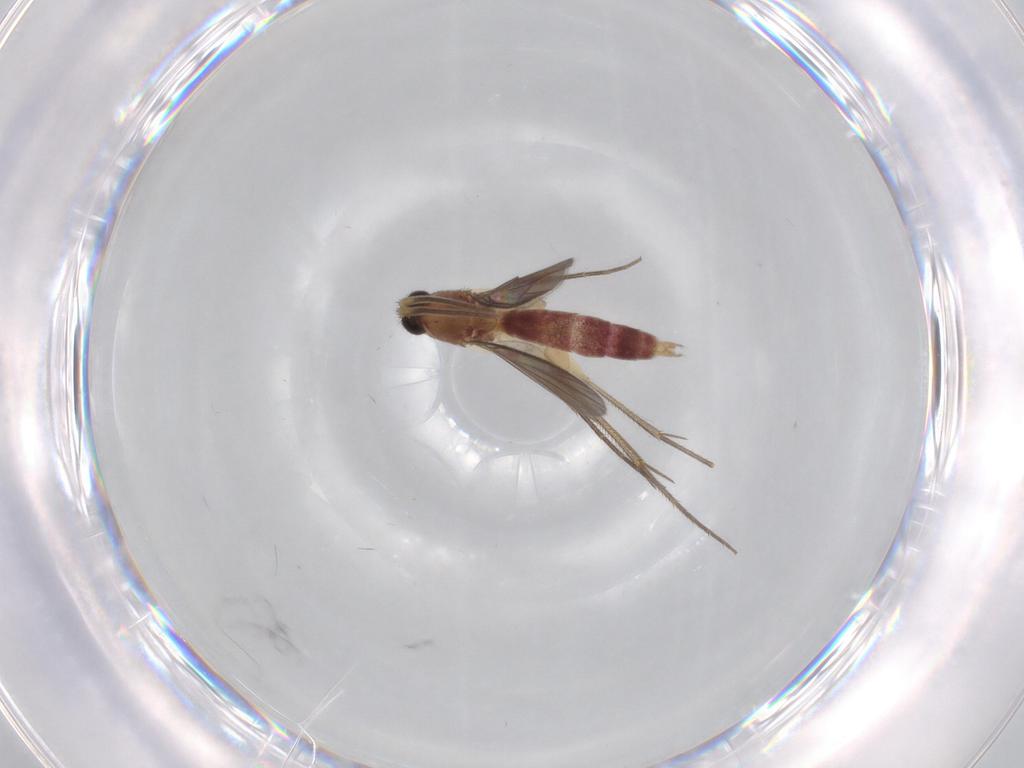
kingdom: Animalia
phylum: Arthropoda
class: Insecta
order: Diptera
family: Mycetophilidae
